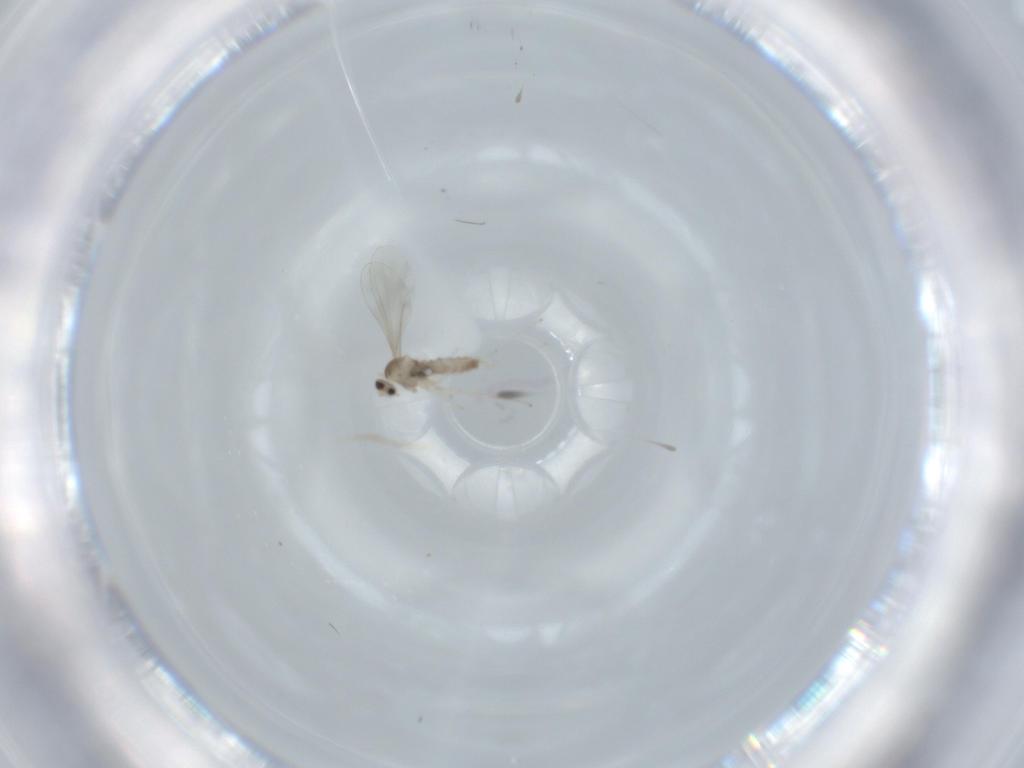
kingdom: Animalia
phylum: Arthropoda
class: Insecta
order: Diptera
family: Cecidomyiidae
